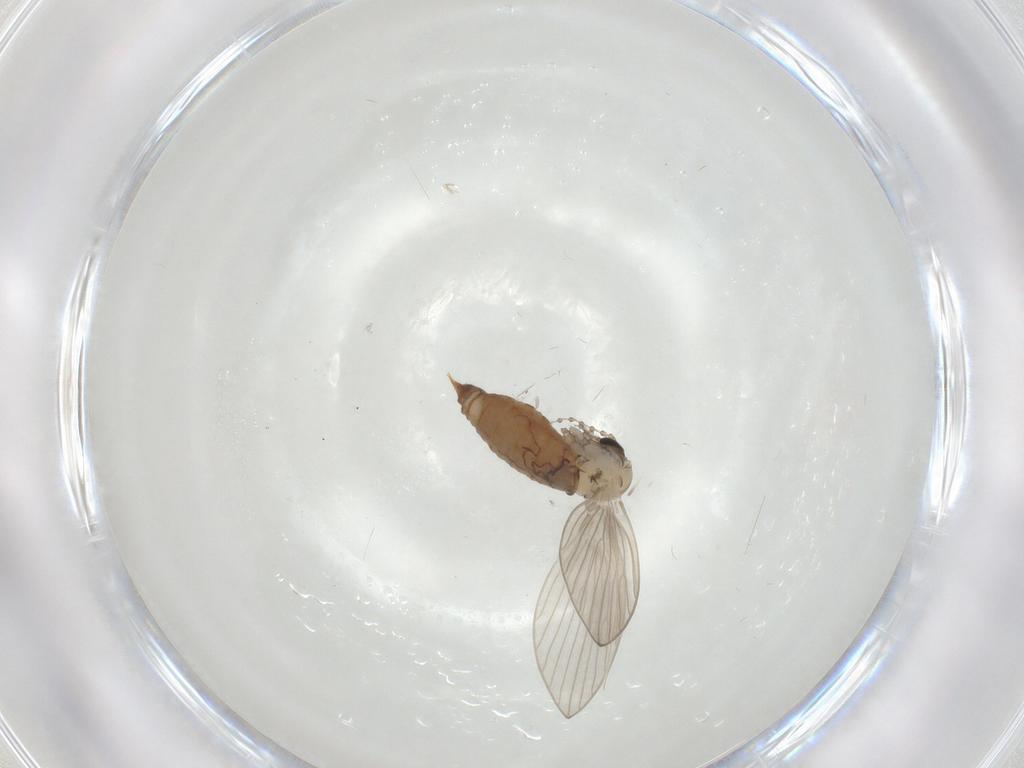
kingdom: Animalia
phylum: Arthropoda
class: Insecta
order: Diptera
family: Psychodidae
